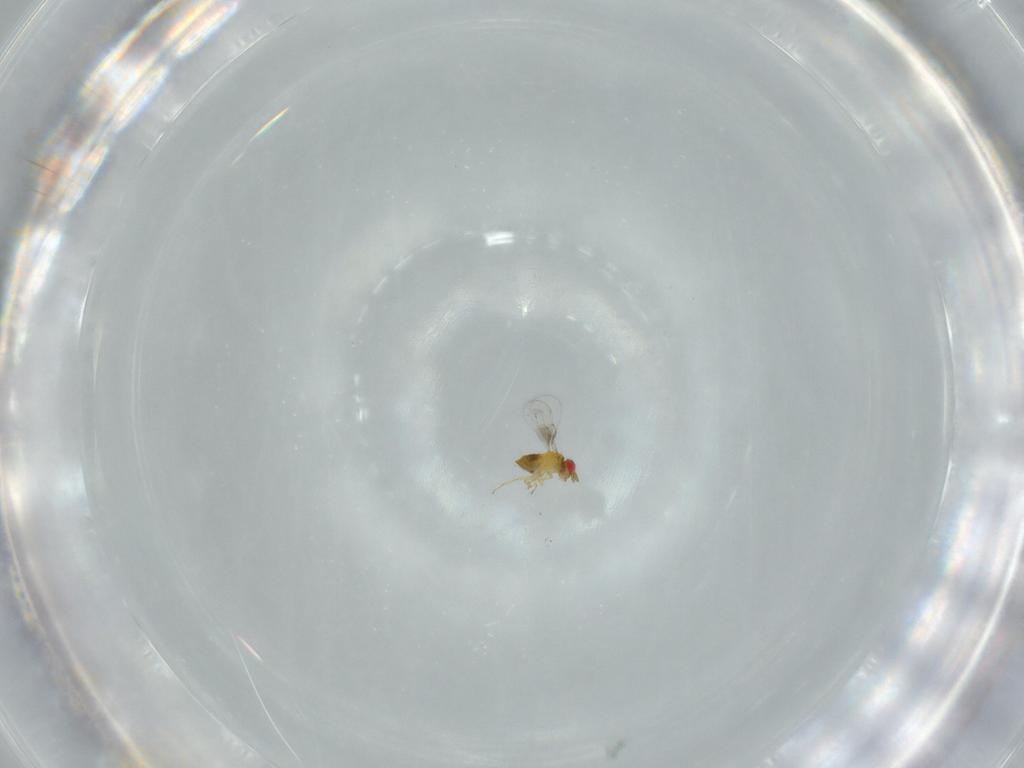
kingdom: Animalia
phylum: Arthropoda
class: Insecta
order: Hymenoptera
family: Trichogrammatidae
